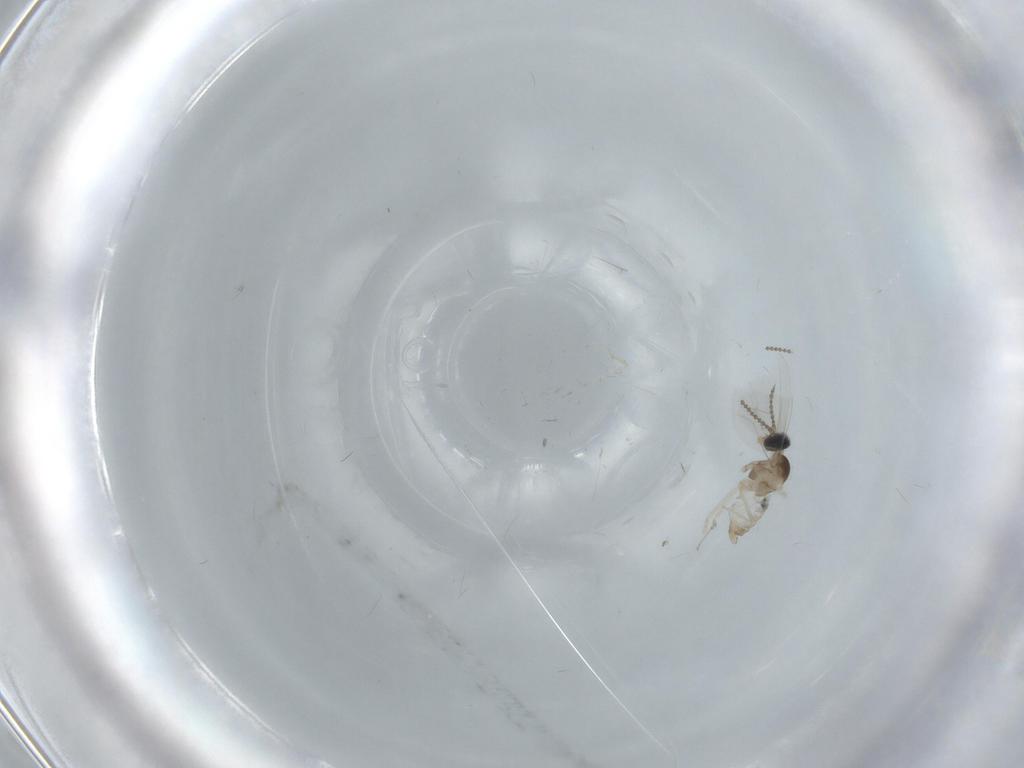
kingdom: Animalia
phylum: Arthropoda
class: Insecta
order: Diptera
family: Cecidomyiidae
